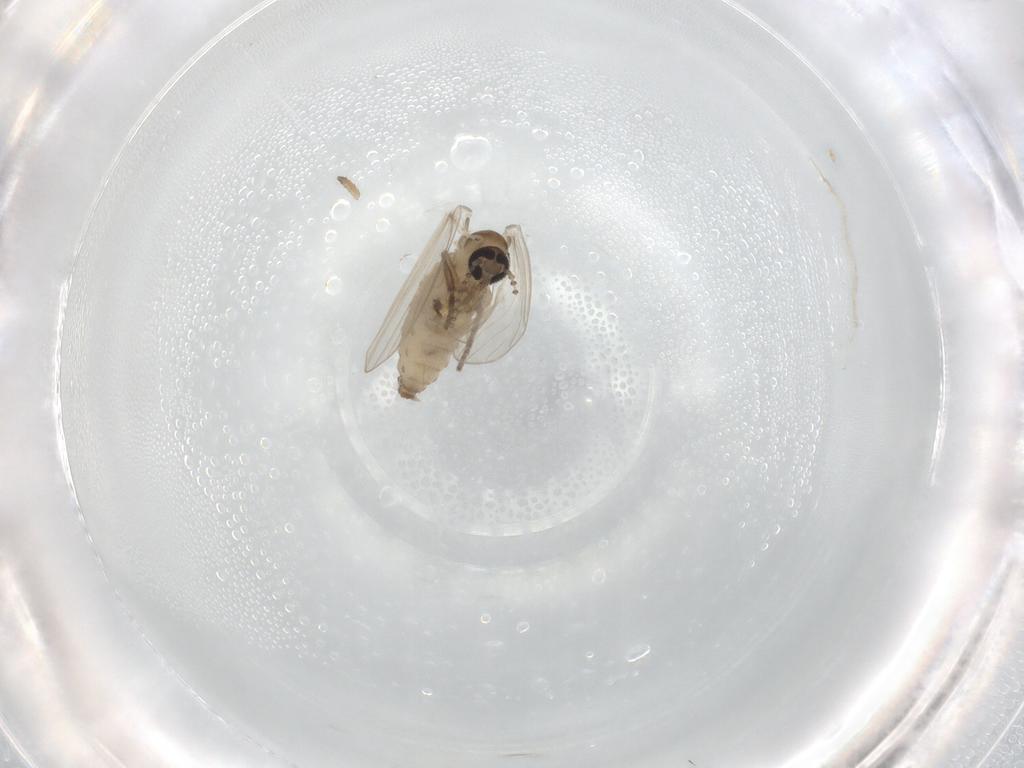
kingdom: Animalia
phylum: Arthropoda
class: Insecta
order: Diptera
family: Psychodidae
